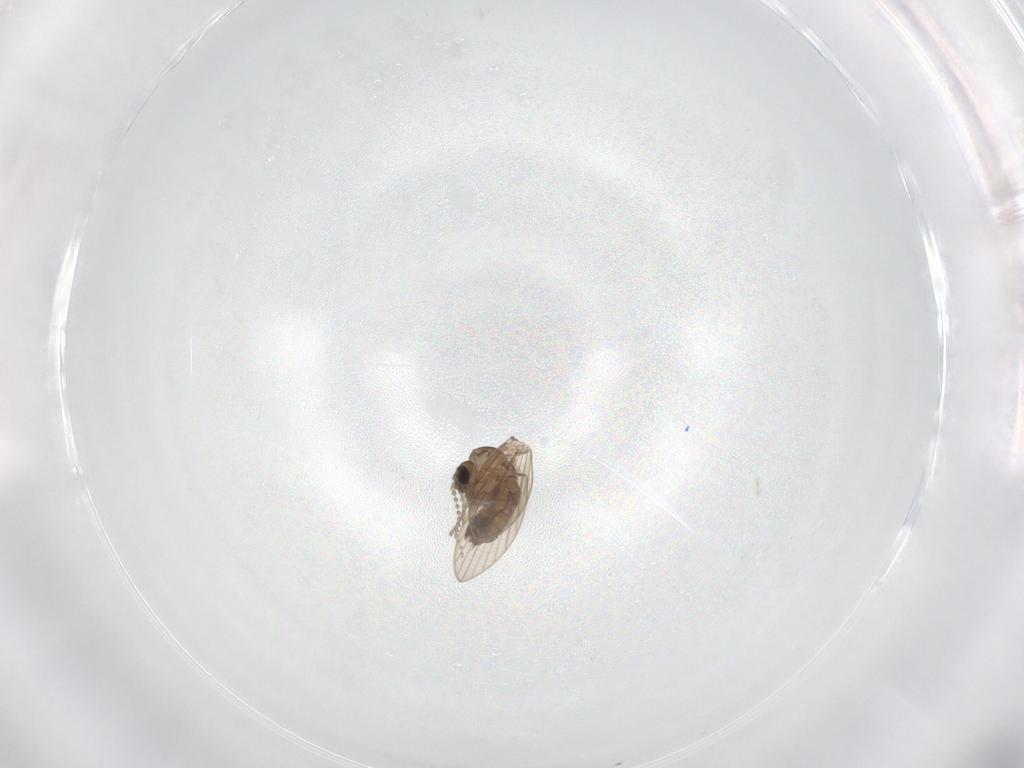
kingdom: Animalia
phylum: Arthropoda
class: Insecta
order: Diptera
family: Psychodidae
